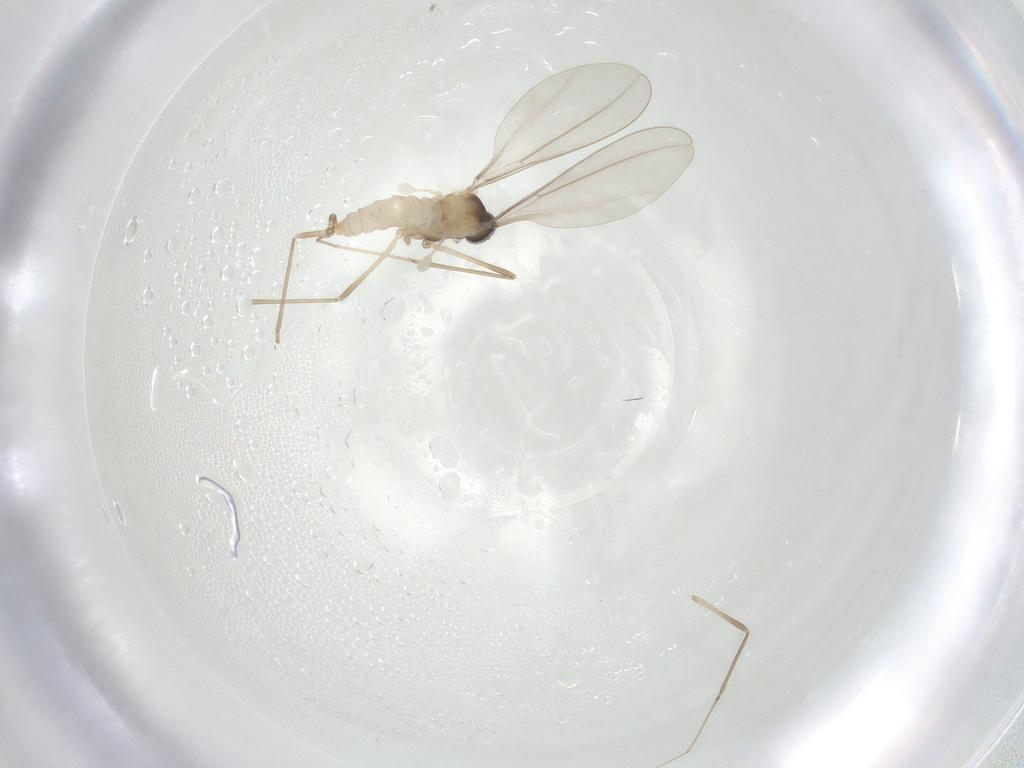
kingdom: Animalia
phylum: Arthropoda
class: Insecta
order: Diptera
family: Cecidomyiidae
